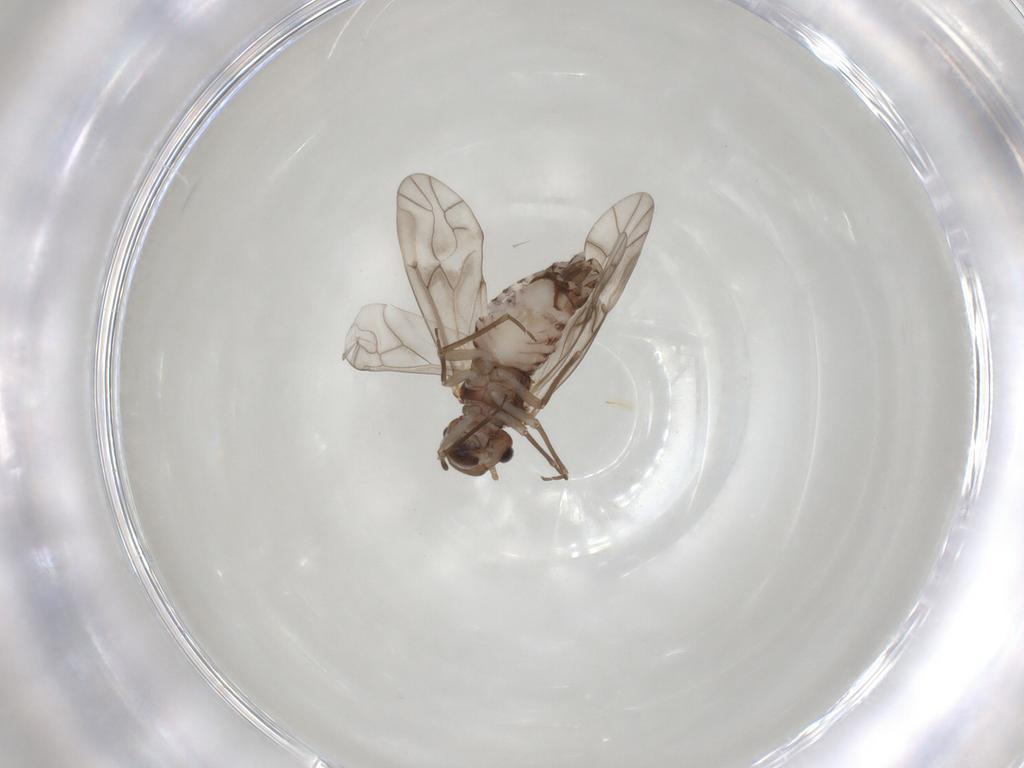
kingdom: Animalia
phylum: Arthropoda
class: Insecta
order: Psocodea
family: Peripsocidae
